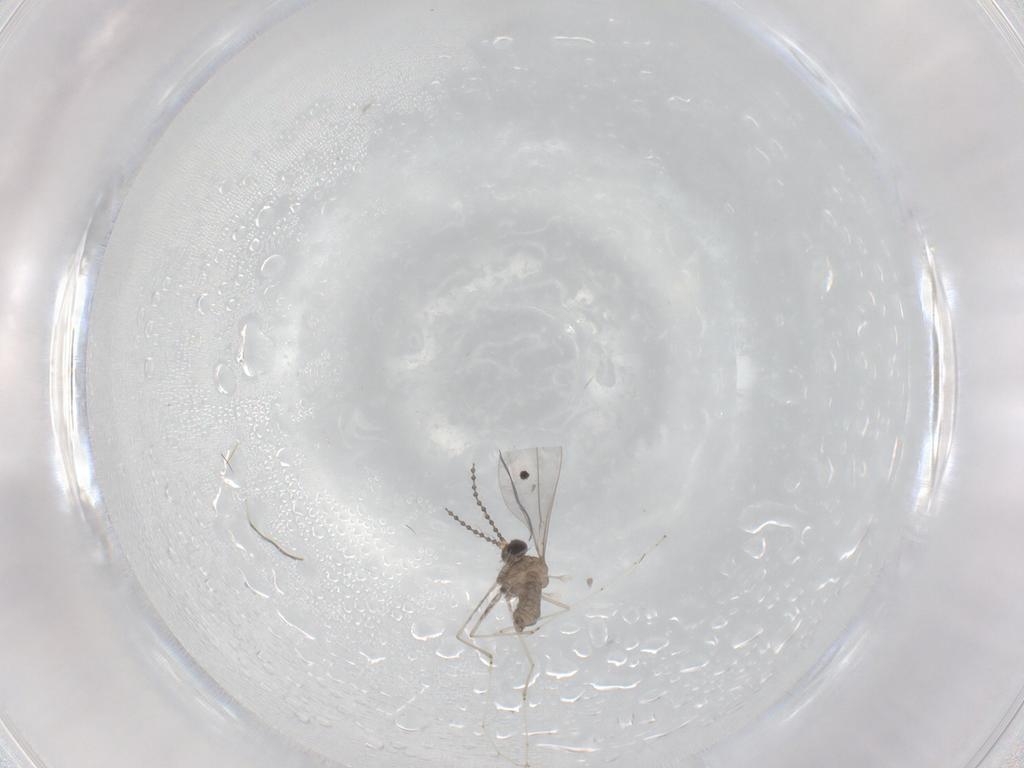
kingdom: Animalia
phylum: Arthropoda
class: Insecta
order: Diptera
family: Cecidomyiidae
